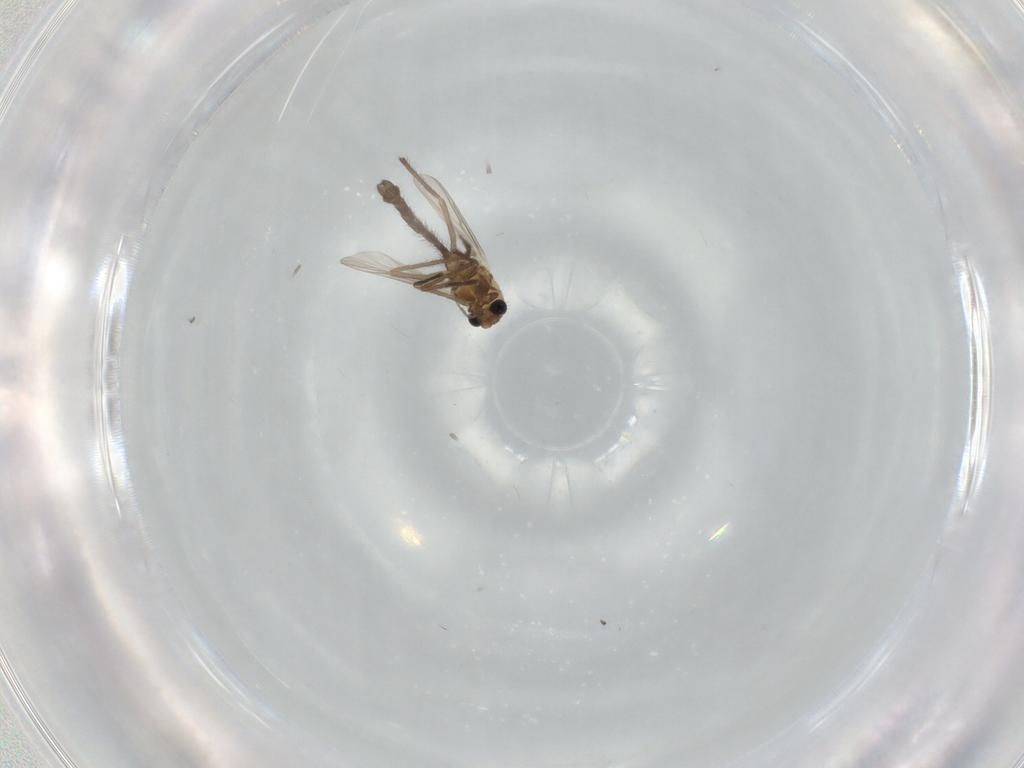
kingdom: Animalia
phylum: Arthropoda
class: Insecta
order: Diptera
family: Chironomidae
